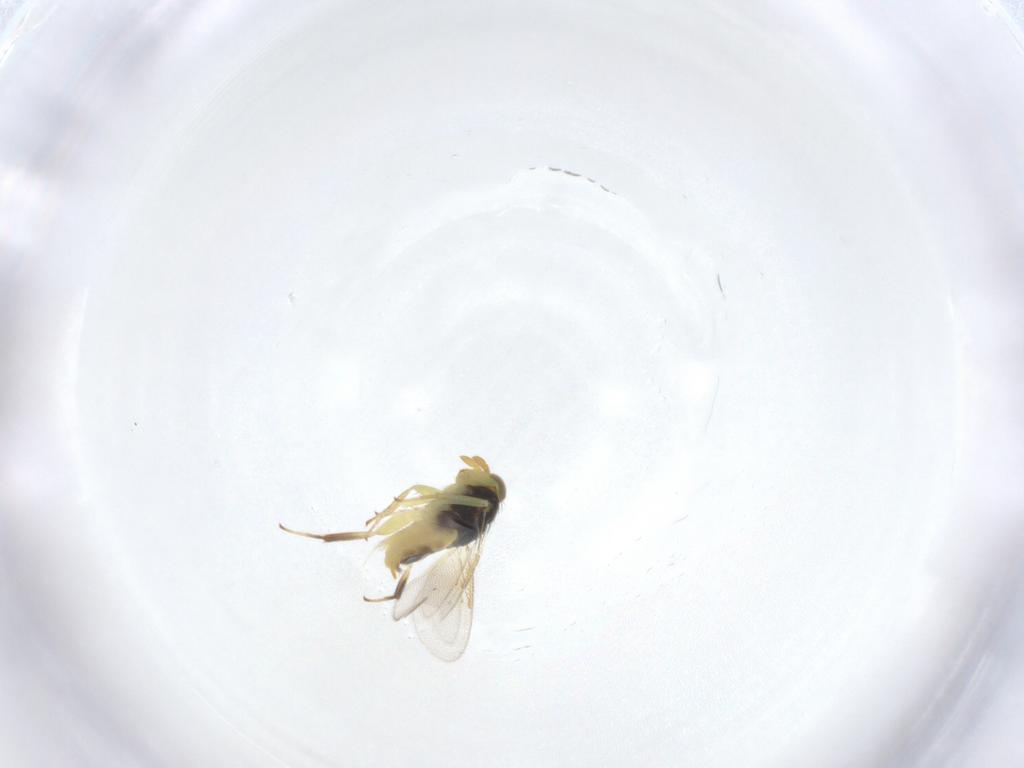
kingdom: Animalia
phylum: Arthropoda
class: Insecta
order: Hymenoptera
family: Aphelinidae
